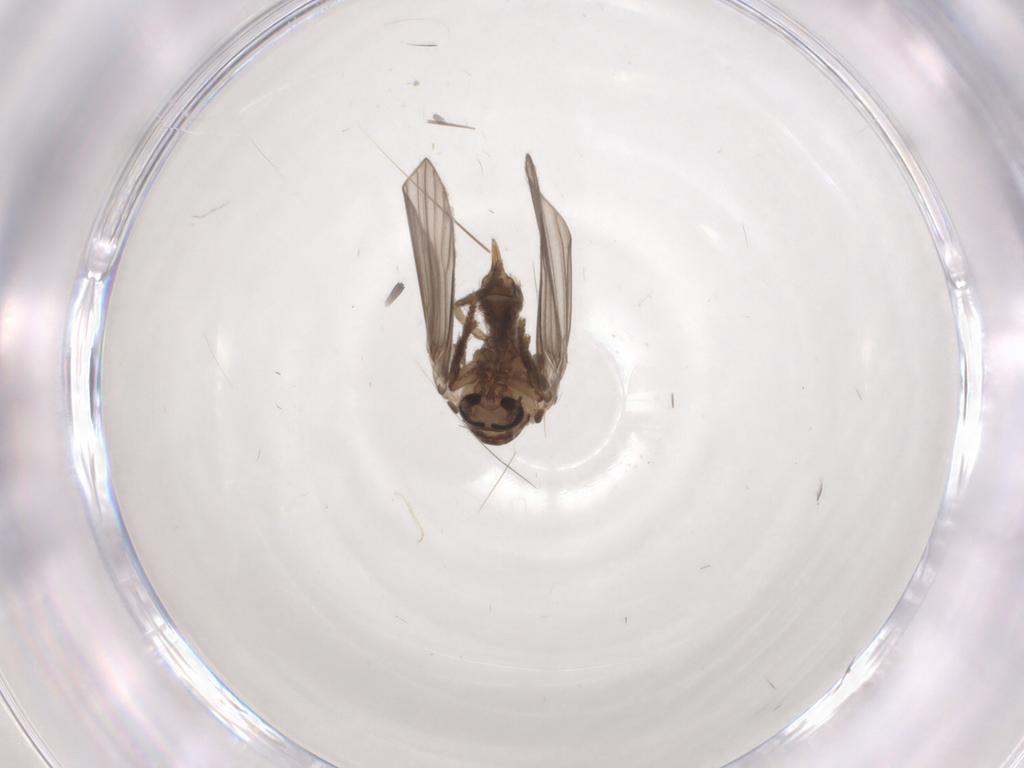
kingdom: Animalia
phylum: Arthropoda
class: Insecta
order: Diptera
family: Psychodidae
